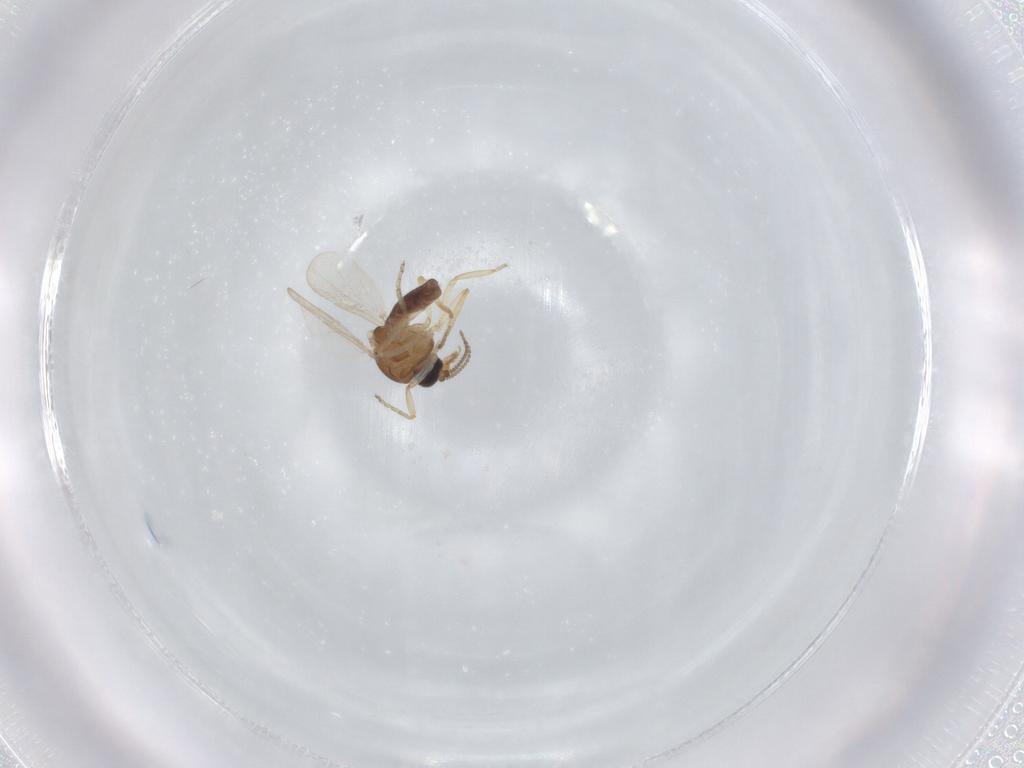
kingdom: Animalia
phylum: Arthropoda
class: Insecta
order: Diptera
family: Ceratopogonidae
